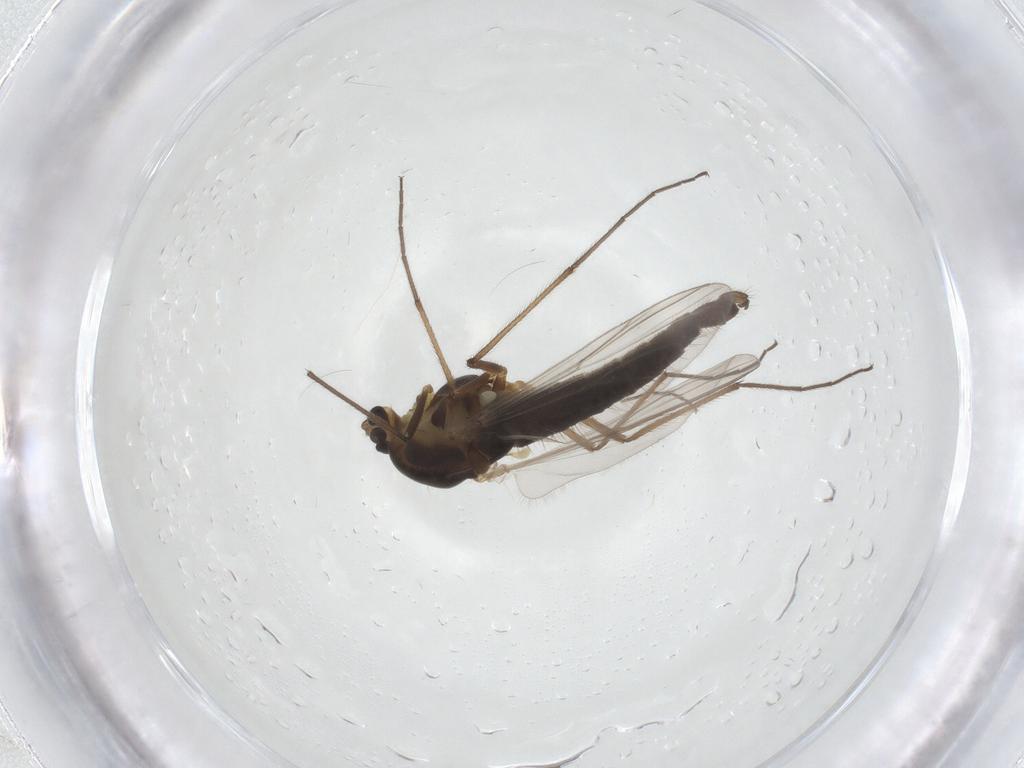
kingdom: Animalia
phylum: Arthropoda
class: Insecta
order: Diptera
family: Chironomidae
